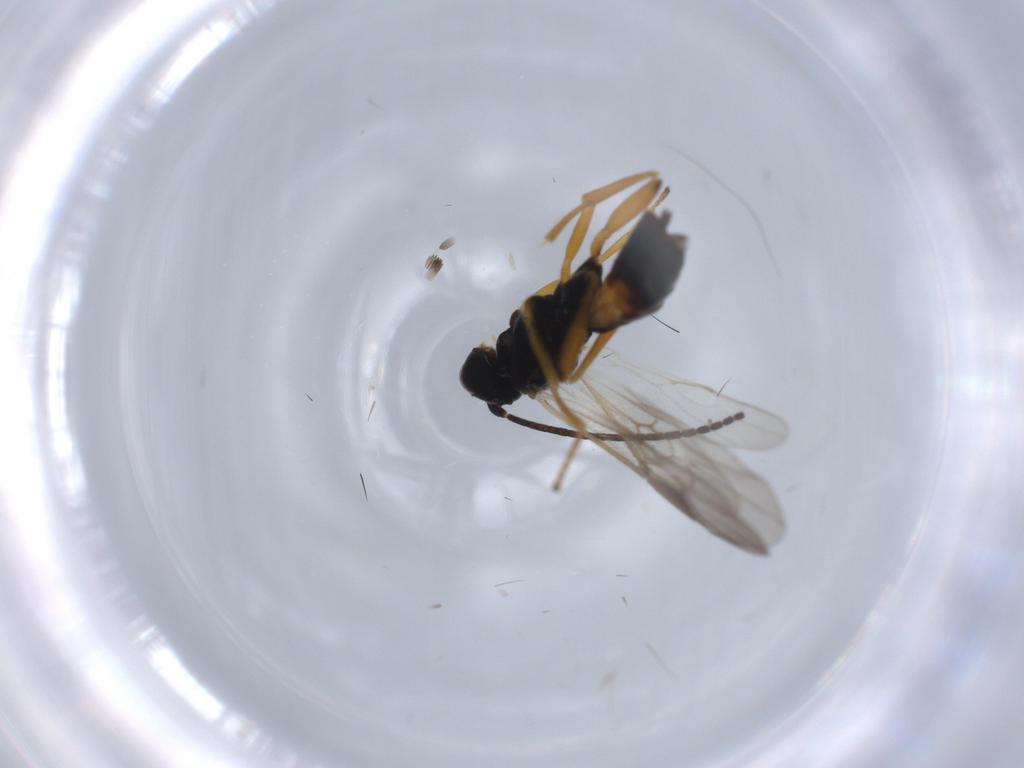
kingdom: Animalia
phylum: Arthropoda
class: Insecta
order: Hymenoptera
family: Braconidae
